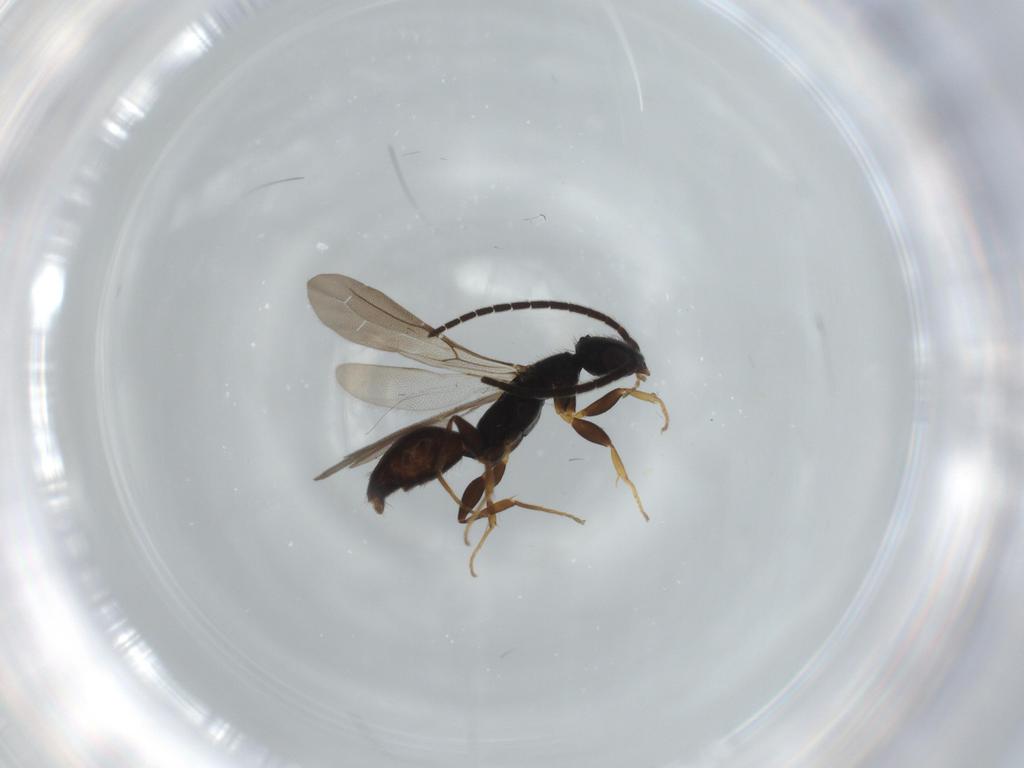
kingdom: Animalia
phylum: Arthropoda
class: Insecta
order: Hymenoptera
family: Bethylidae
